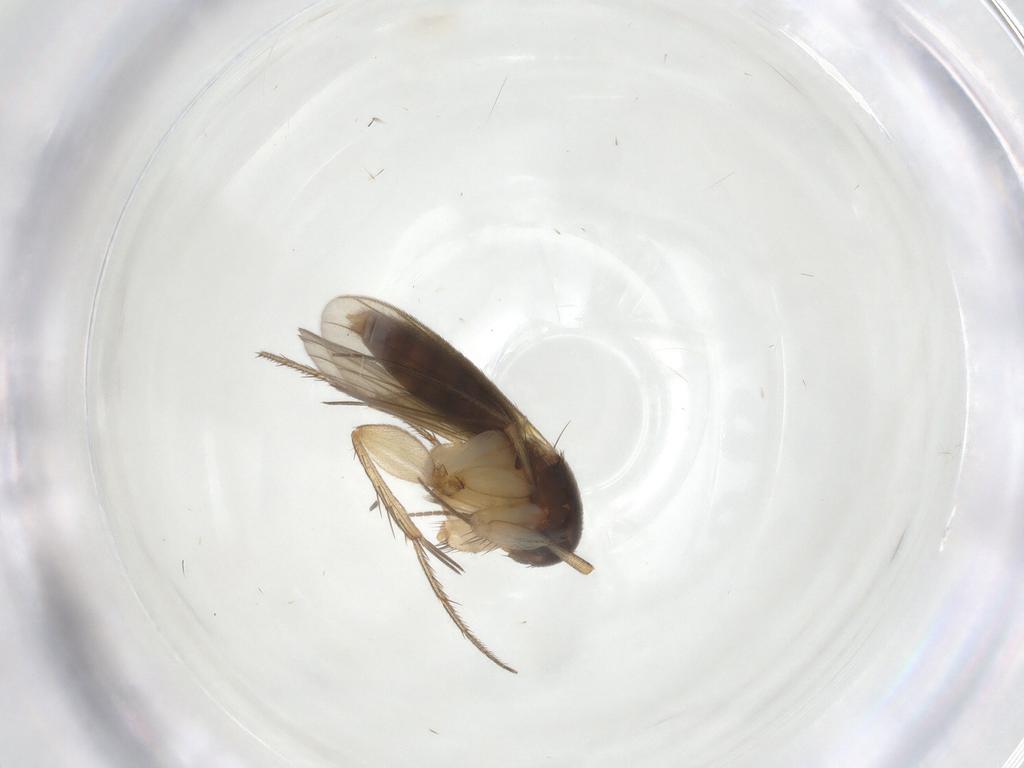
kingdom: Animalia
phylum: Arthropoda
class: Insecta
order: Diptera
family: Mycetophilidae
